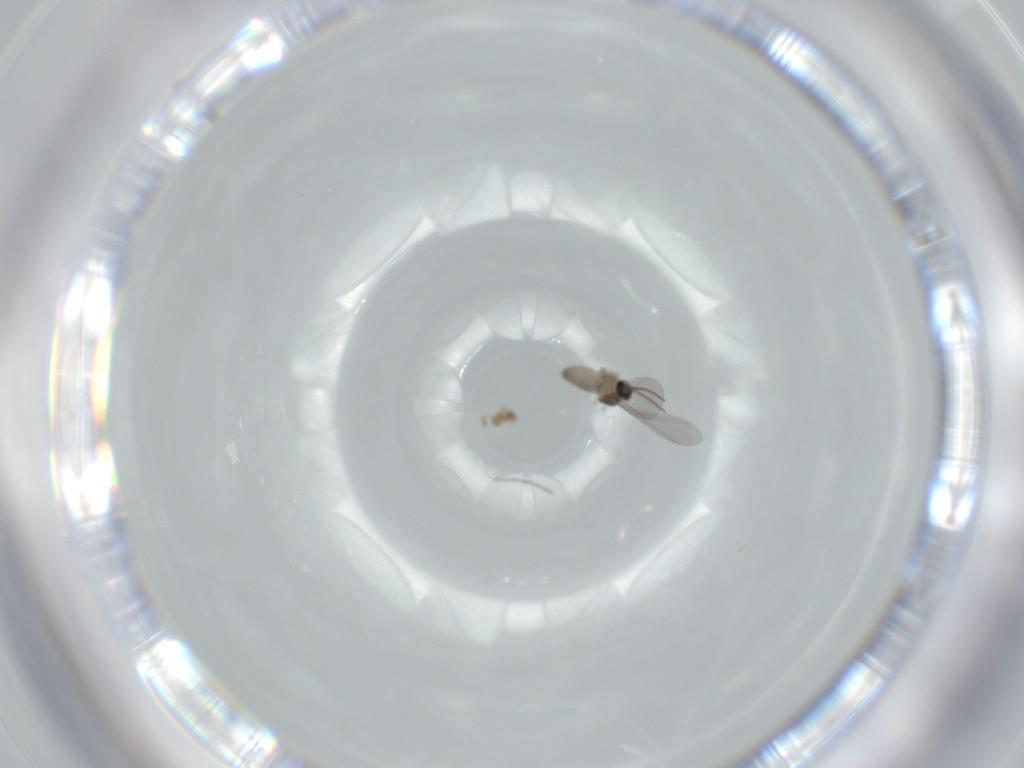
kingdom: Animalia
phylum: Arthropoda
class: Insecta
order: Diptera
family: Cecidomyiidae
